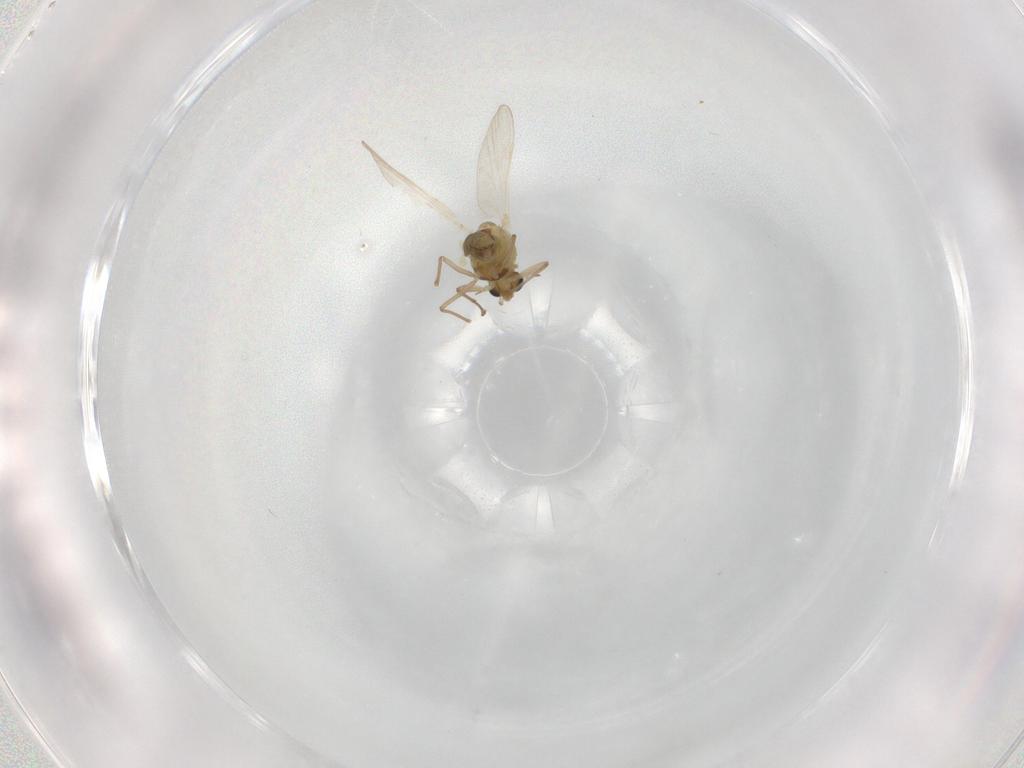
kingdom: Animalia
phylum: Arthropoda
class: Insecta
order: Diptera
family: Chironomidae
